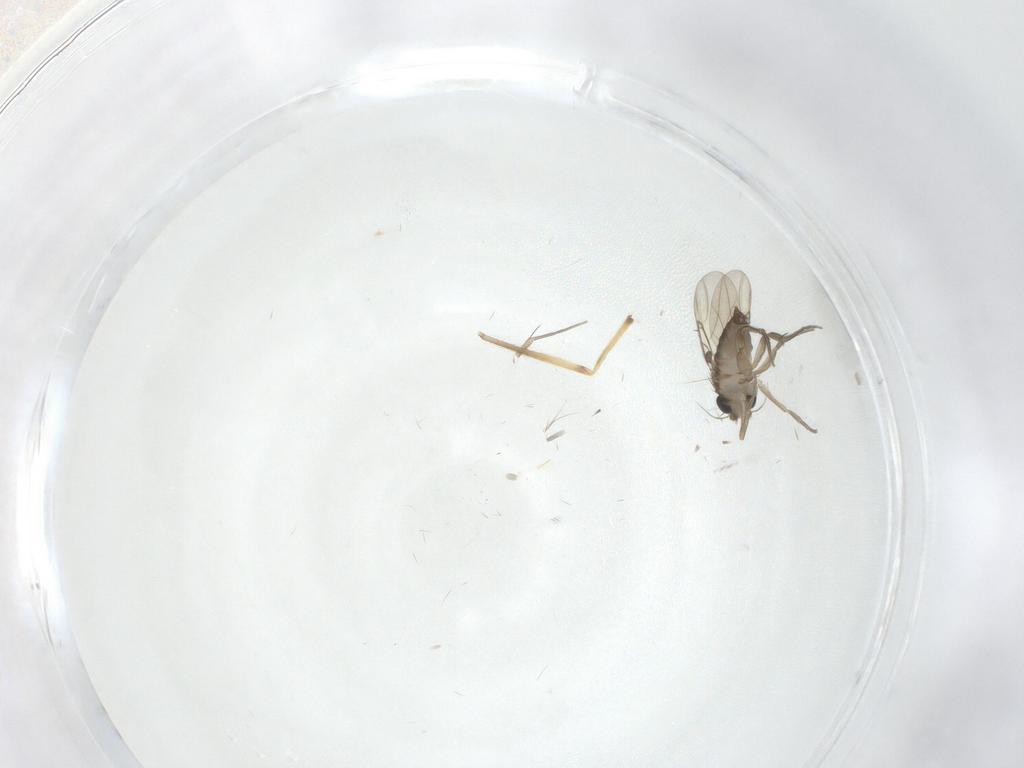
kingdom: Animalia
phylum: Arthropoda
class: Insecta
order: Diptera
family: Chironomidae
